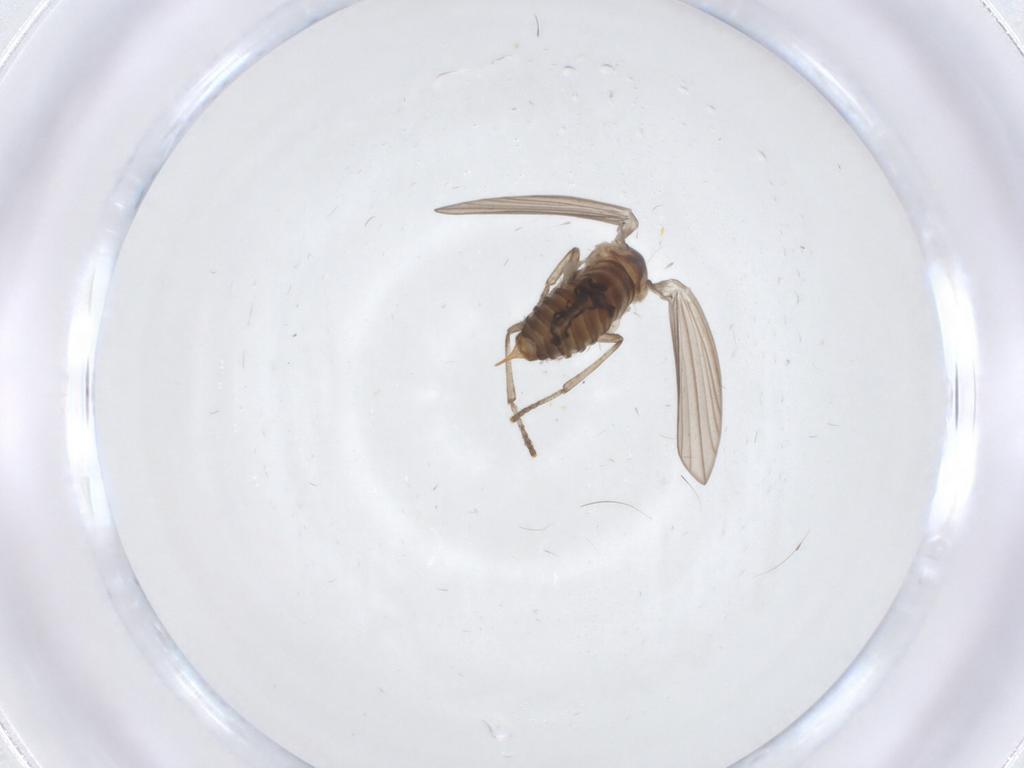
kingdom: Animalia
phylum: Arthropoda
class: Insecta
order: Diptera
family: Psychodidae
